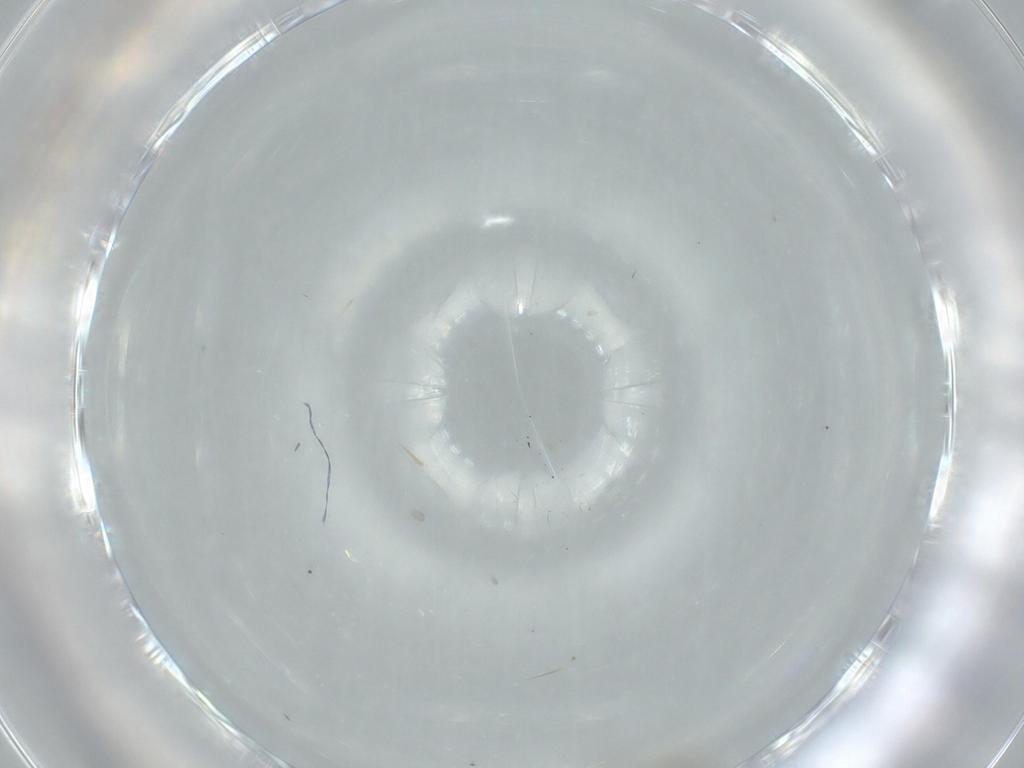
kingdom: Animalia
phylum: Arthropoda
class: Insecta
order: Diptera
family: Cecidomyiidae
